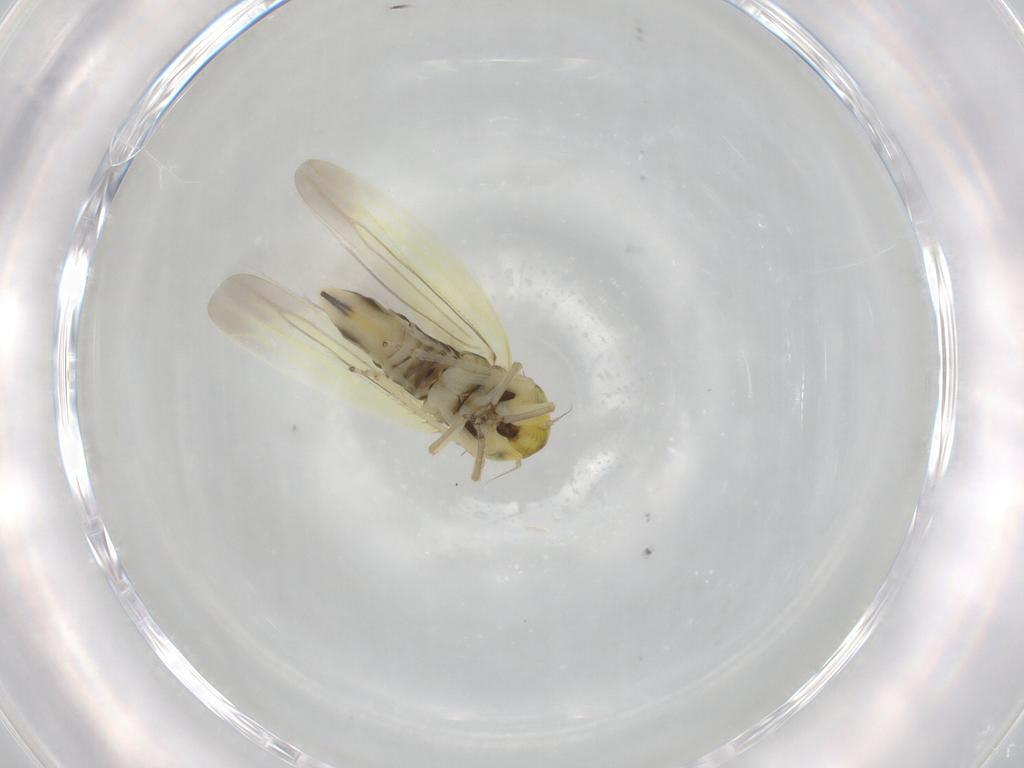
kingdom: Animalia
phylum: Arthropoda
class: Insecta
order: Hemiptera
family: Cicadellidae
